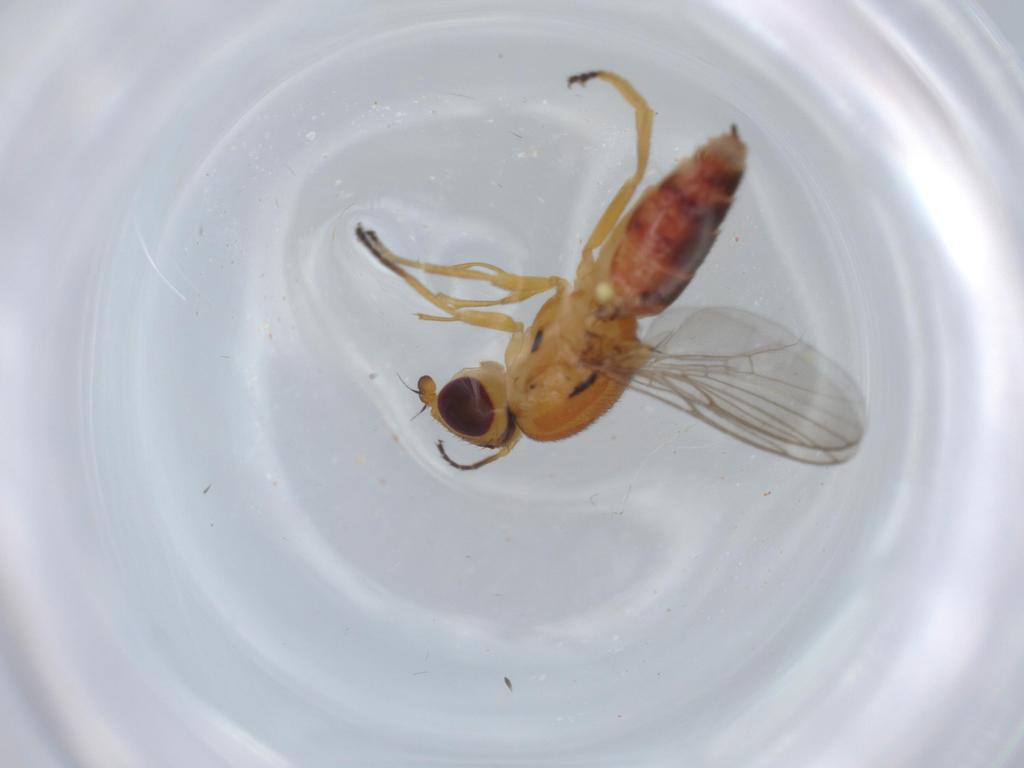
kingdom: Animalia
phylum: Arthropoda
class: Insecta
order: Diptera
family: Chloropidae
